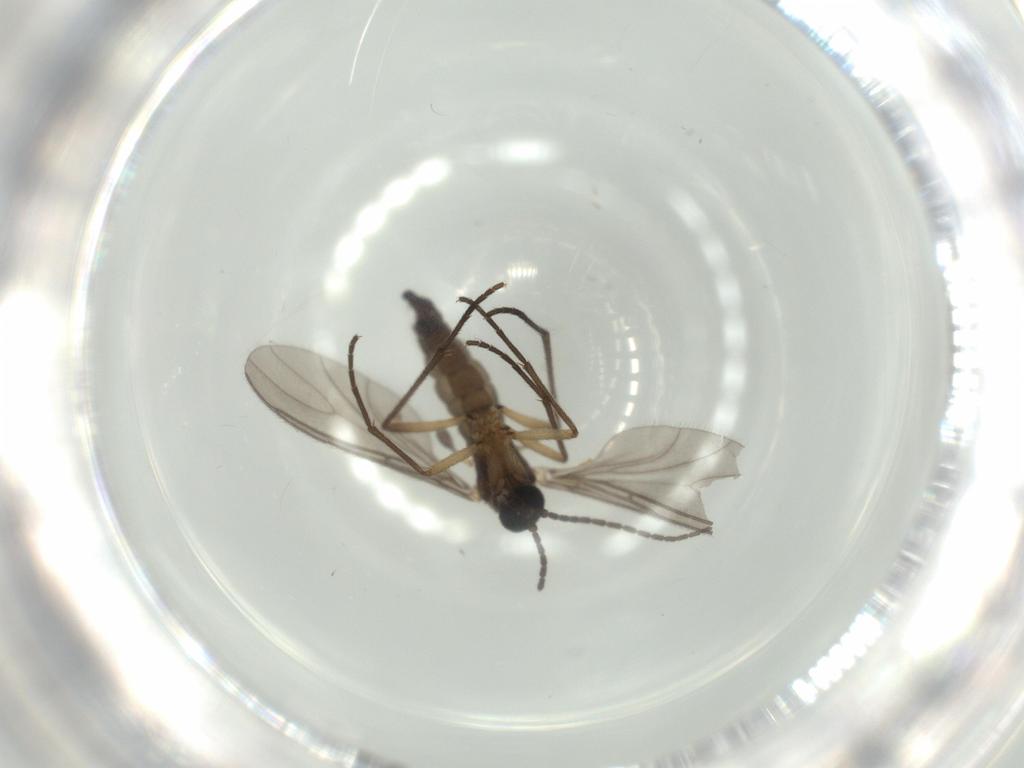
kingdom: Animalia
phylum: Arthropoda
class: Insecta
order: Diptera
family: Sciaridae
